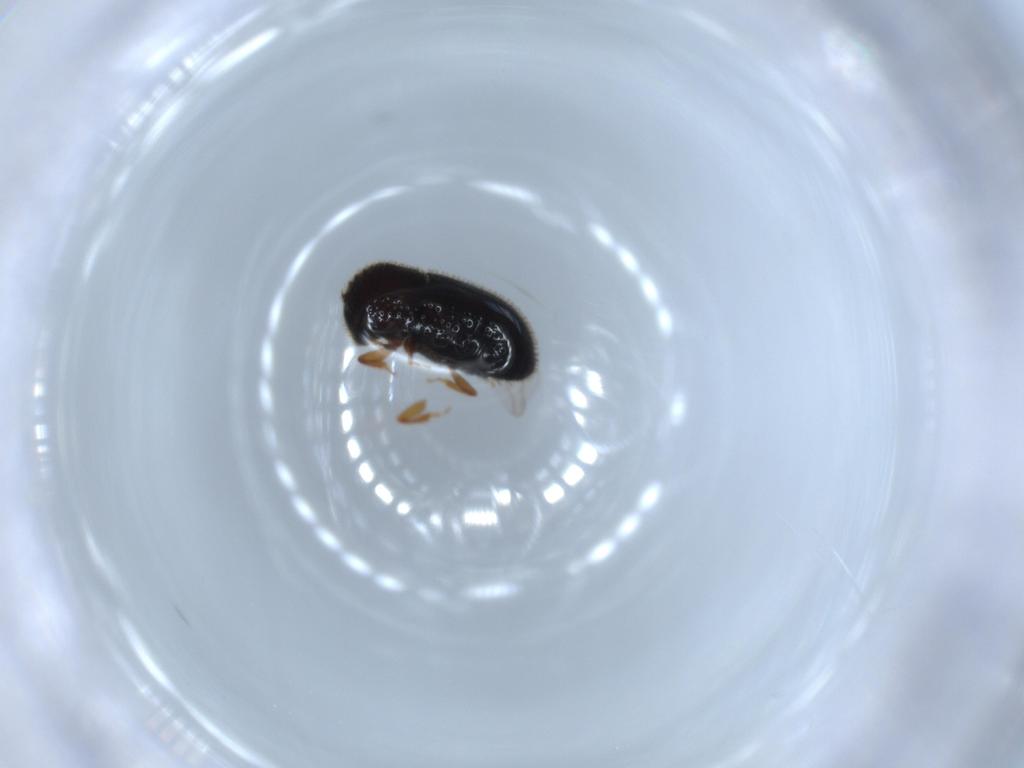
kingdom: Animalia
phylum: Arthropoda
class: Insecta
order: Coleoptera
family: Curculionidae
